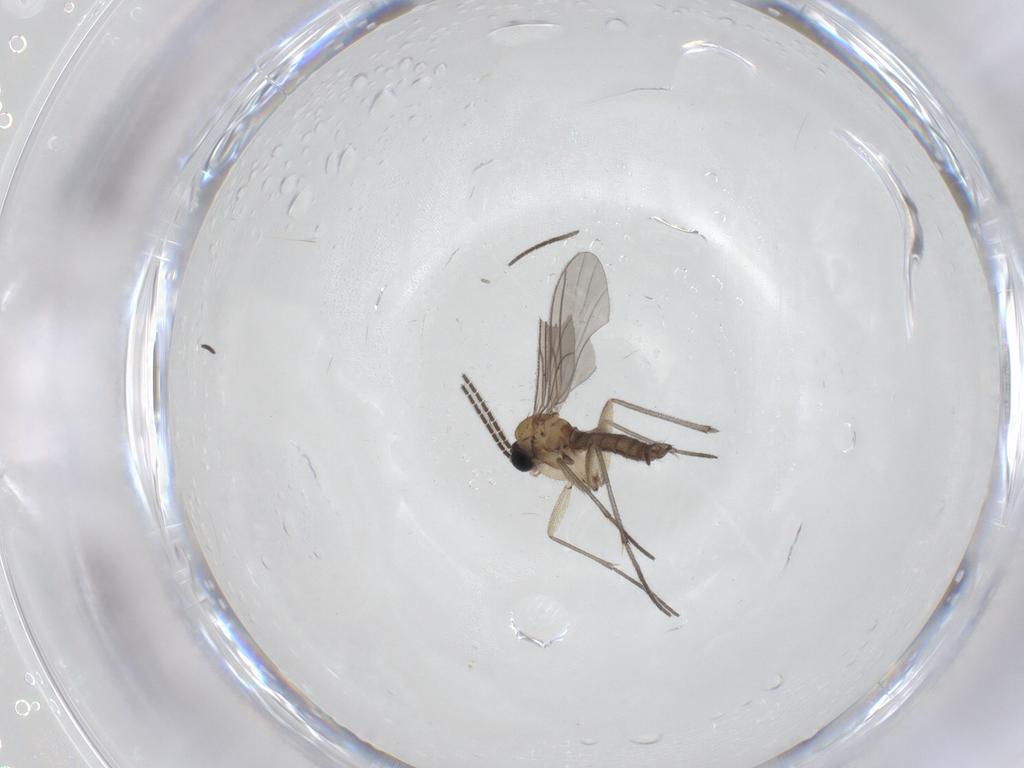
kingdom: Animalia
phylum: Arthropoda
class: Insecta
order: Diptera
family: Sciaridae
